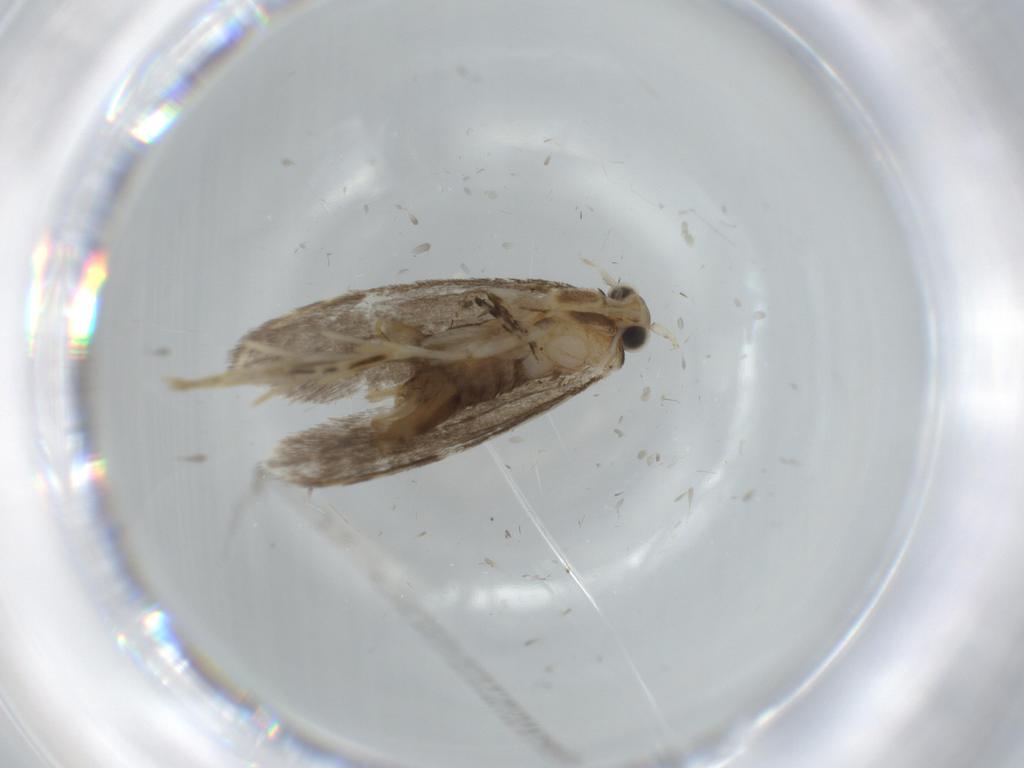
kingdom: Animalia
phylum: Arthropoda
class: Insecta
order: Lepidoptera
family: Tineidae
